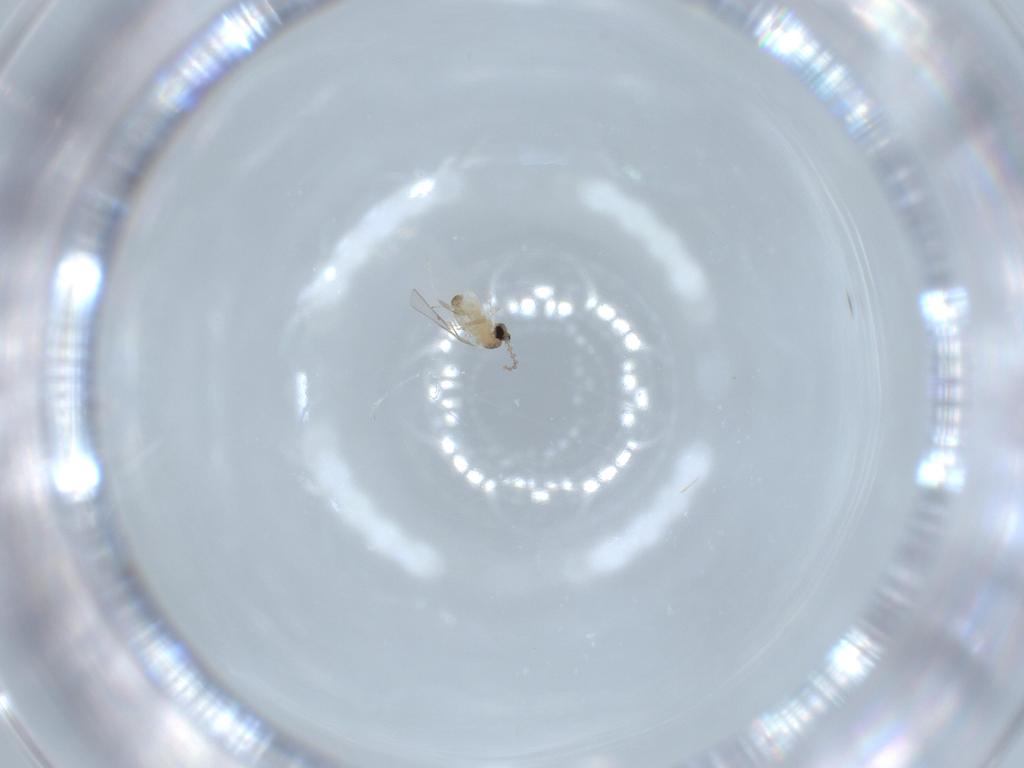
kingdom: Animalia
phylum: Arthropoda
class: Insecta
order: Diptera
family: Cecidomyiidae
